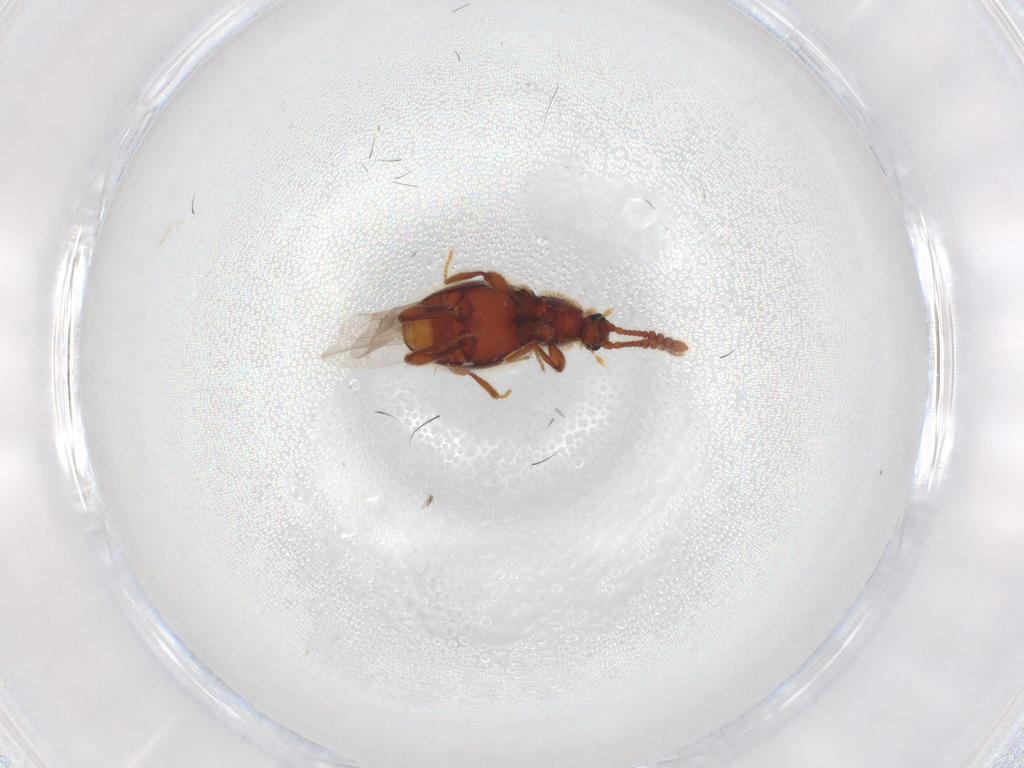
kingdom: Animalia
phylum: Arthropoda
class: Insecta
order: Coleoptera
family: Staphylinidae
